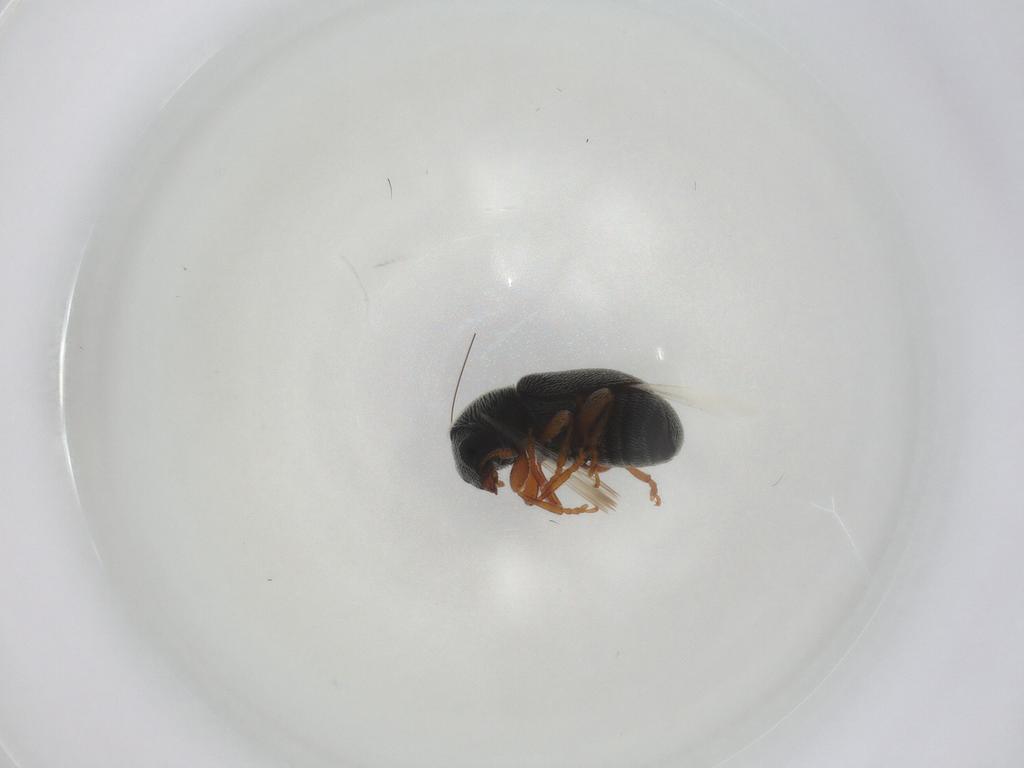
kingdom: Animalia
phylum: Arthropoda
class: Insecta
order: Coleoptera
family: Anthribidae
